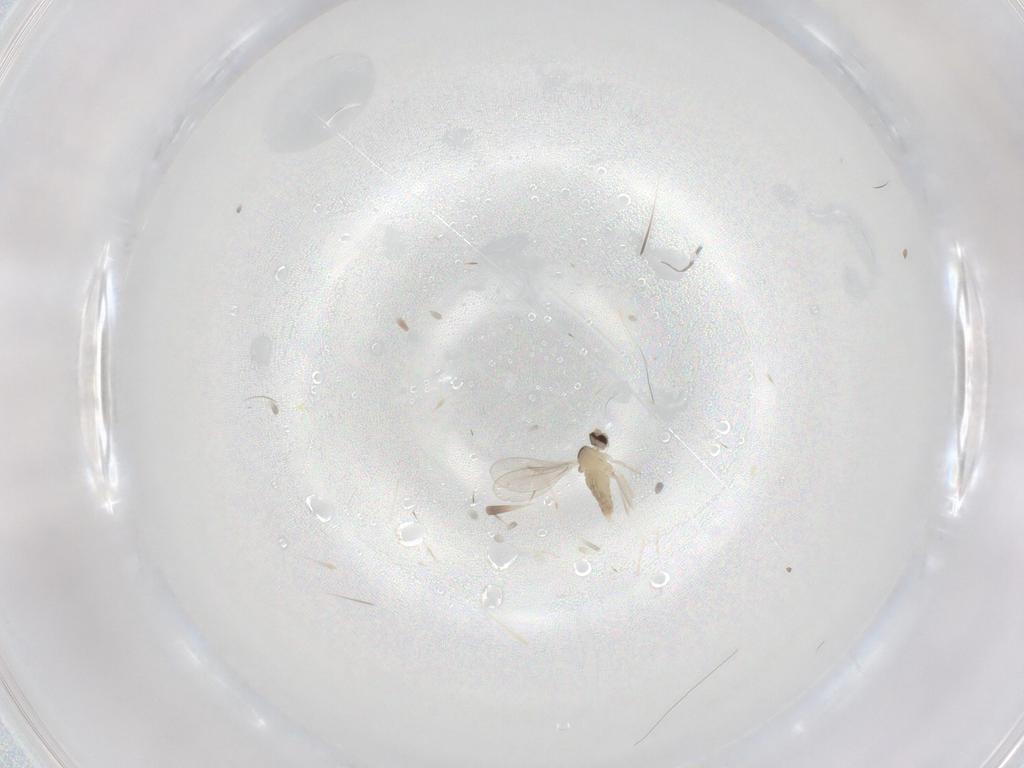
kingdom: Animalia
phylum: Arthropoda
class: Insecta
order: Diptera
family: Cecidomyiidae
